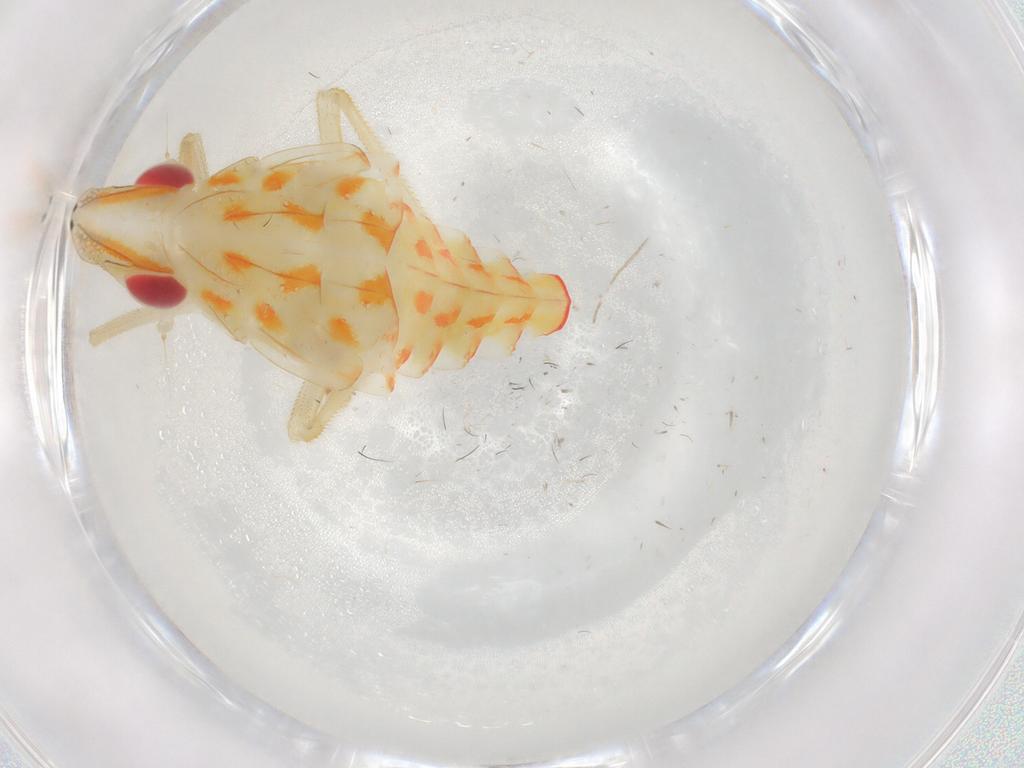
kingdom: Animalia
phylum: Arthropoda
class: Insecta
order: Hemiptera
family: Tropiduchidae
